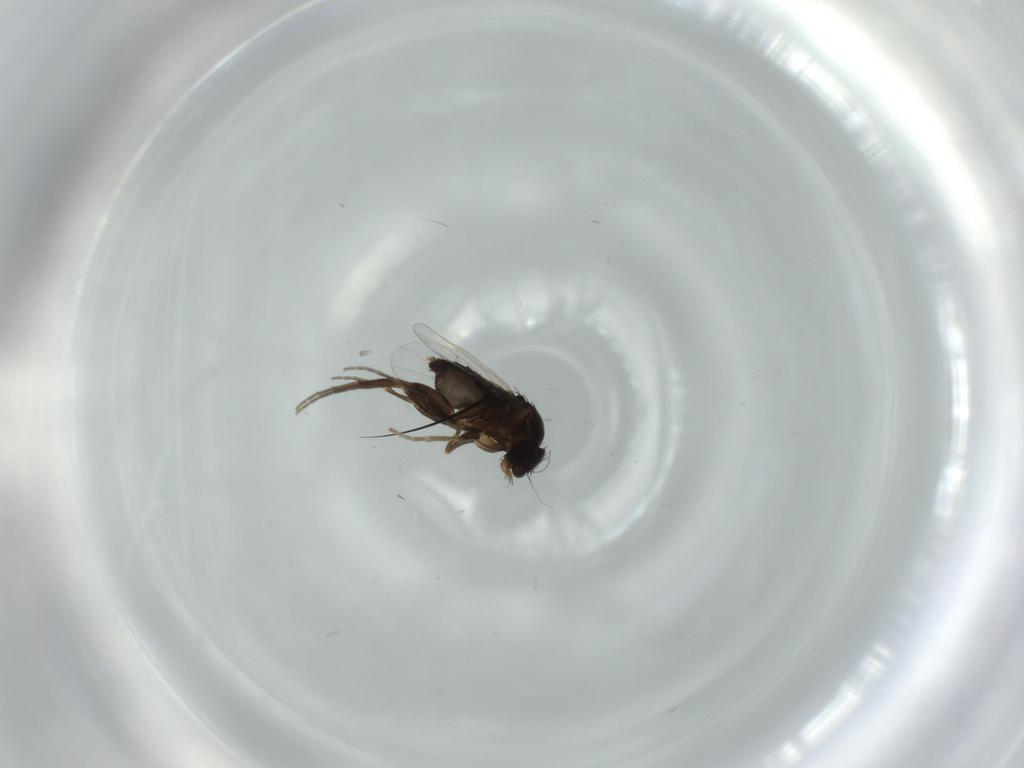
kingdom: Animalia
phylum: Arthropoda
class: Insecta
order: Diptera
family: Phoridae
